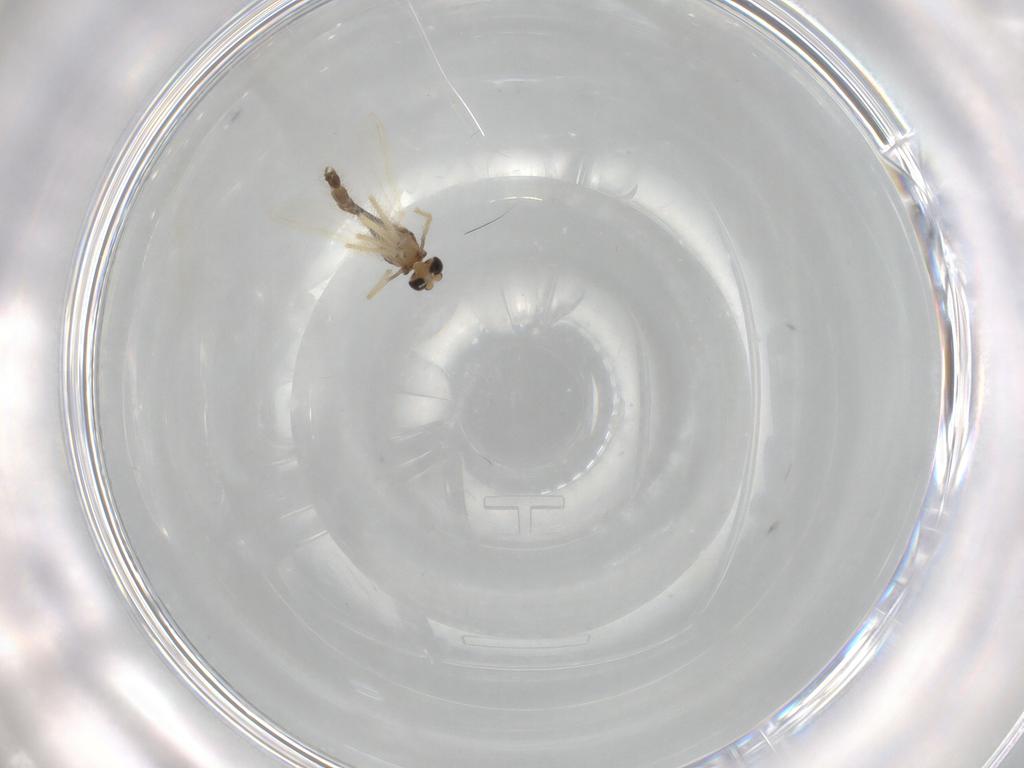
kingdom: Animalia
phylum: Arthropoda
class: Insecta
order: Diptera
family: Chironomidae
